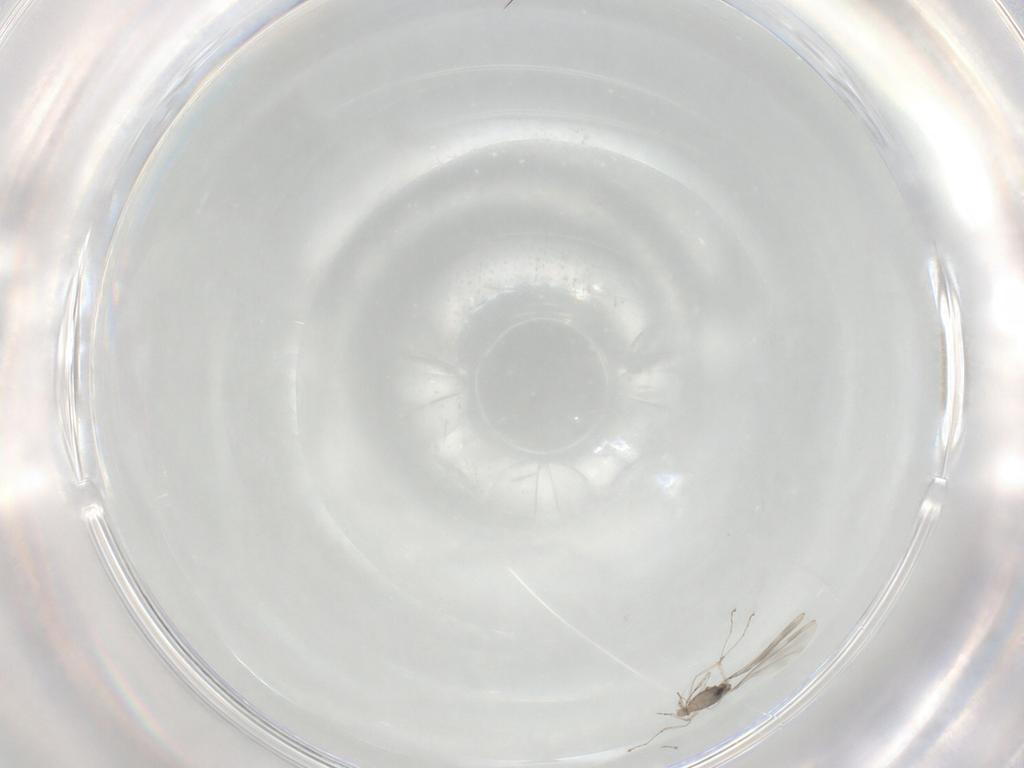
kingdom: Animalia
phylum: Arthropoda
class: Insecta
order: Diptera
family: Cecidomyiidae
